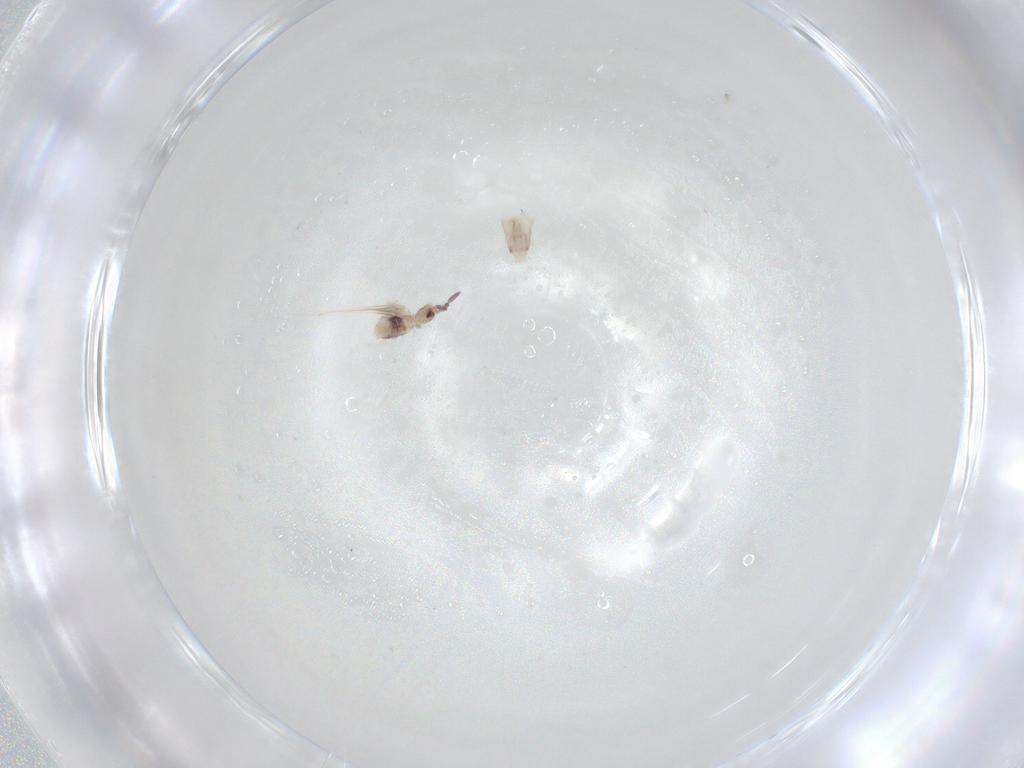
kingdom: Animalia
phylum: Arthropoda
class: Collembola
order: Entomobryomorpha
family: Entomobryidae
